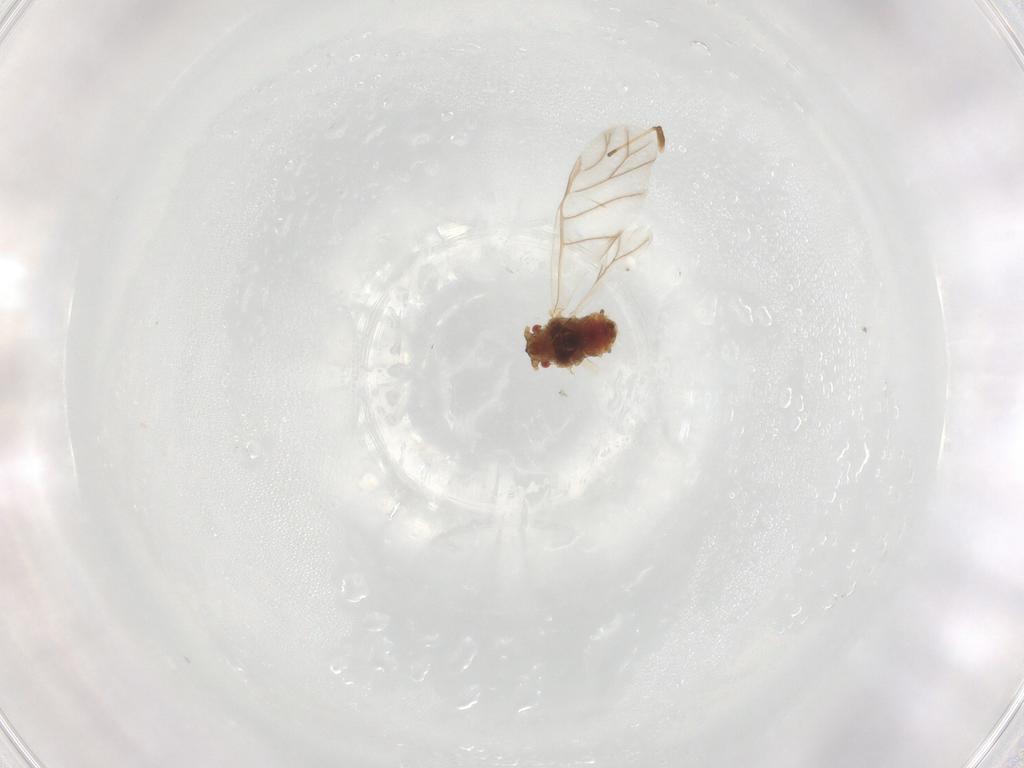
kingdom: Animalia
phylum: Arthropoda
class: Insecta
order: Hemiptera
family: Aphididae
